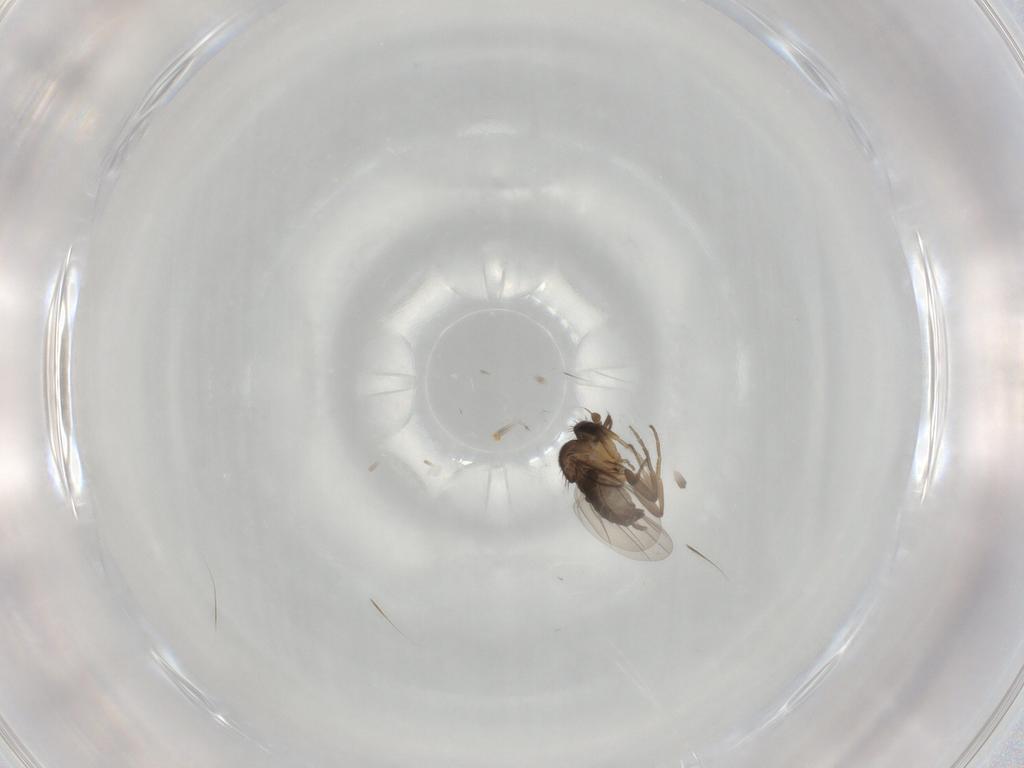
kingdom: Animalia
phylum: Arthropoda
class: Insecta
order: Diptera
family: Phoridae
